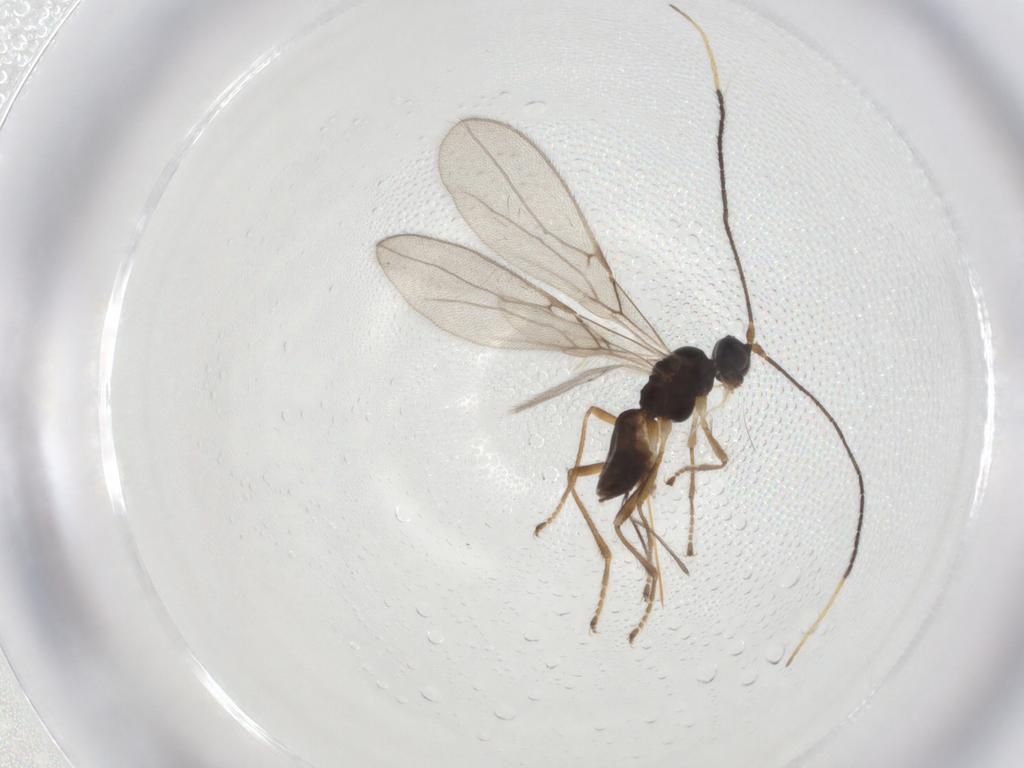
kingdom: Animalia
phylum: Arthropoda
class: Insecta
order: Hymenoptera
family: Braconidae
